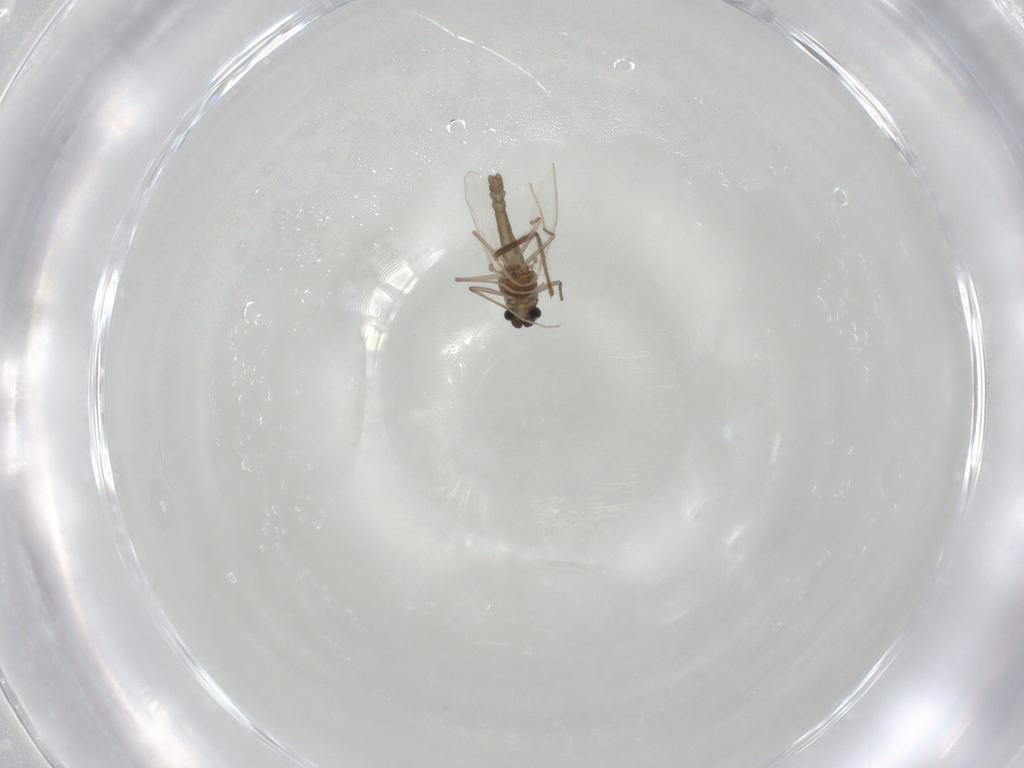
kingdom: Animalia
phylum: Arthropoda
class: Insecta
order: Diptera
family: Chironomidae
